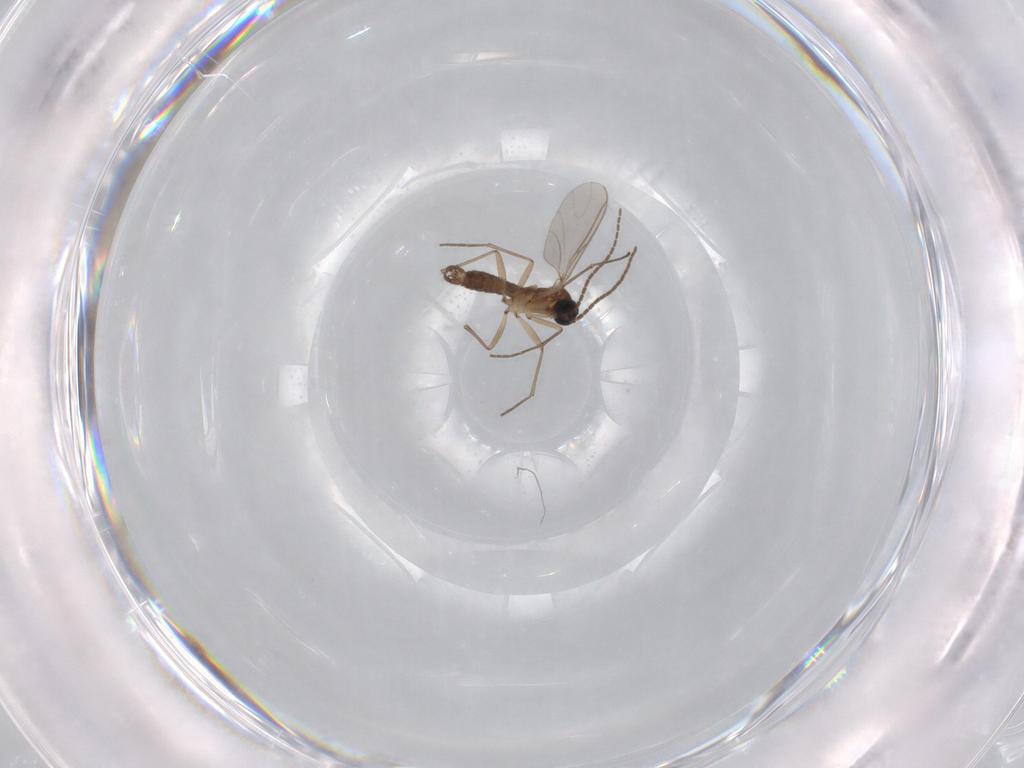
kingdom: Animalia
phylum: Arthropoda
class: Insecta
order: Diptera
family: Sciaridae
